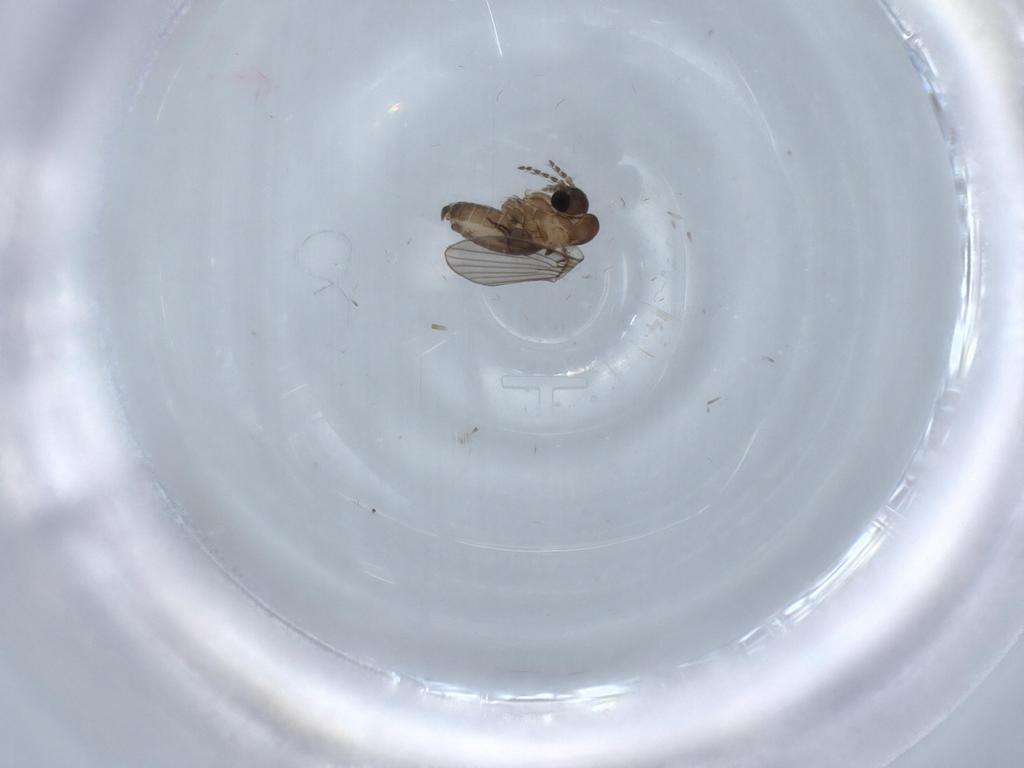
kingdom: Animalia
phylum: Arthropoda
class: Insecta
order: Diptera
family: Psychodidae
